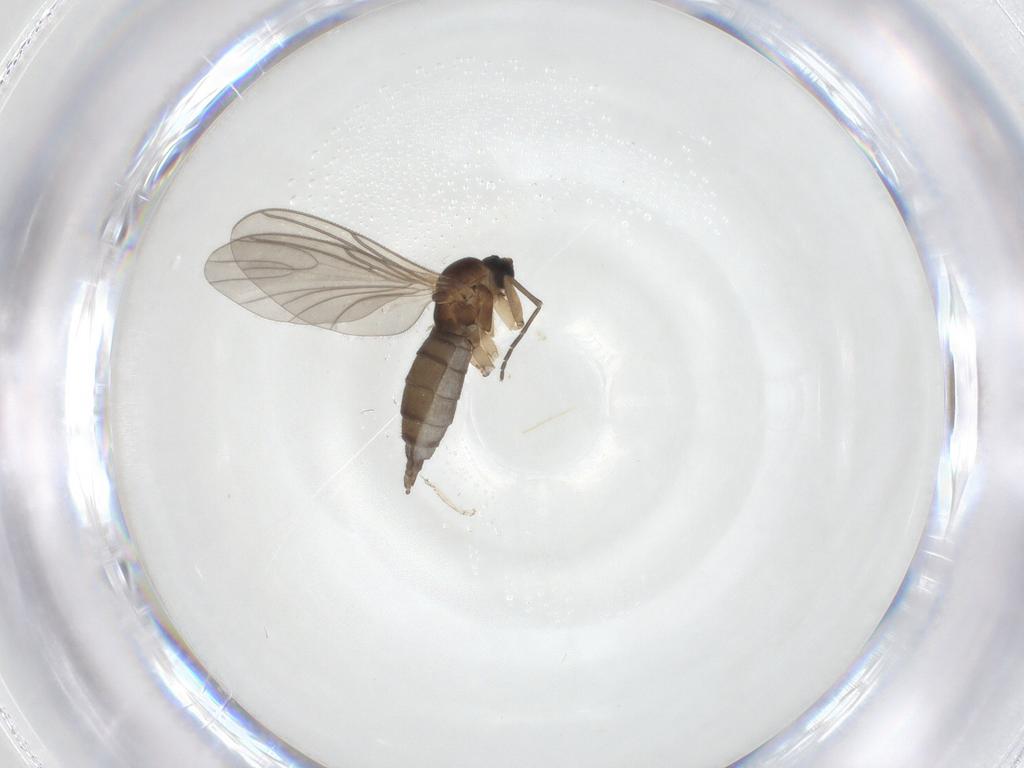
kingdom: Animalia
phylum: Arthropoda
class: Insecta
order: Diptera
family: Sciaridae
